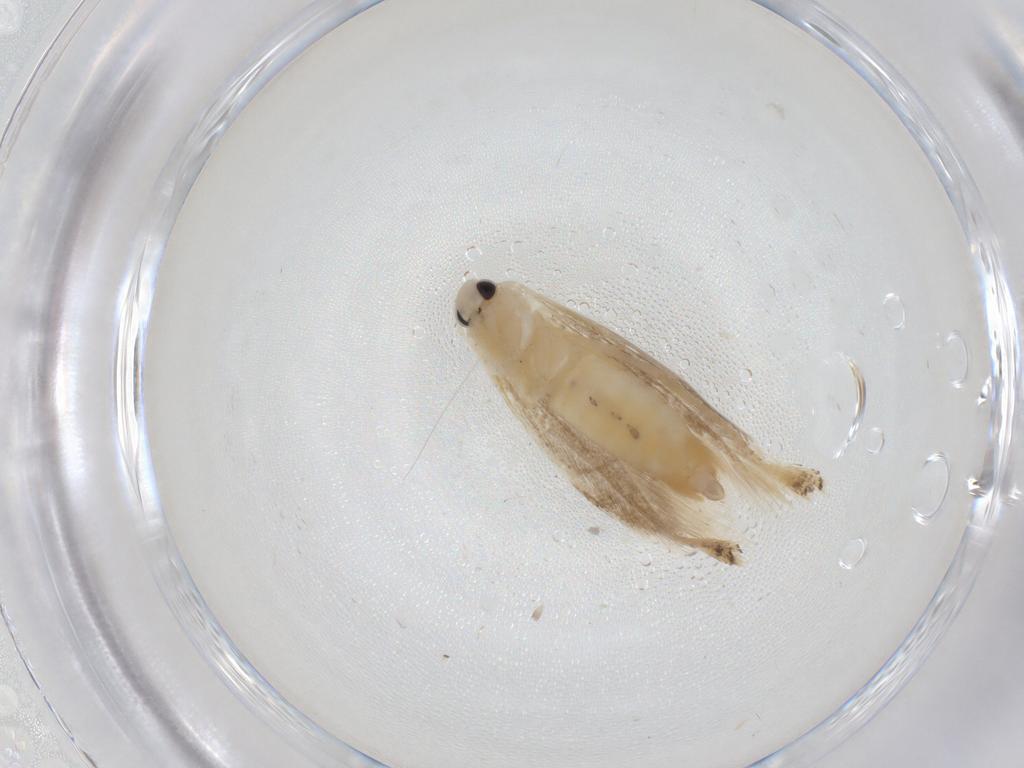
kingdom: Animalia
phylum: Arthropoda
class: Insecta
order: Lepidoptera
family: Bucculatricidae
